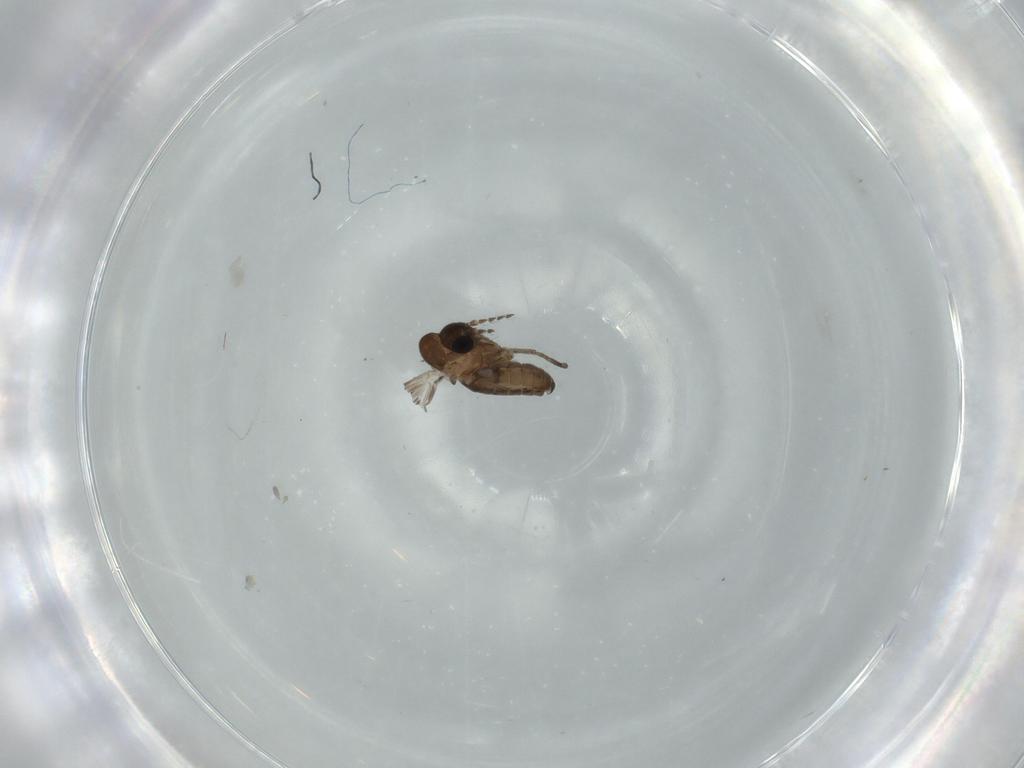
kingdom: Animalia
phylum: Arthropoda
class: Insecta
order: Diptera
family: Psychodidae
